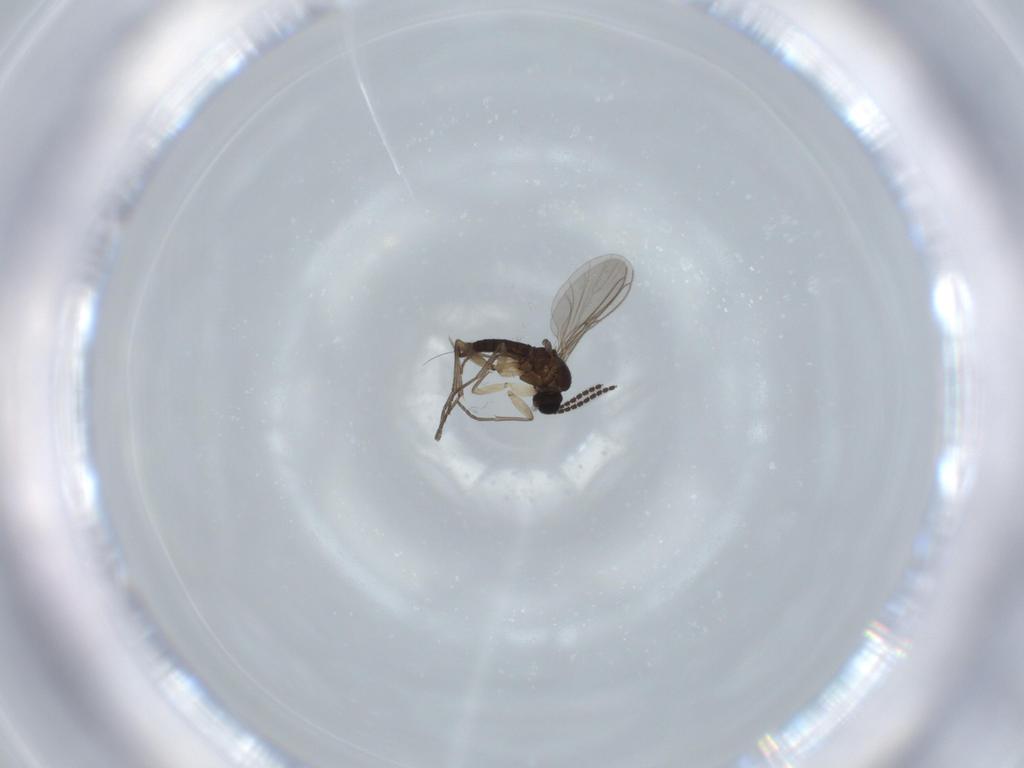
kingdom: Animalia
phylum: Arthropoda
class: Insecta
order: Diptera
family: Sciaridae
